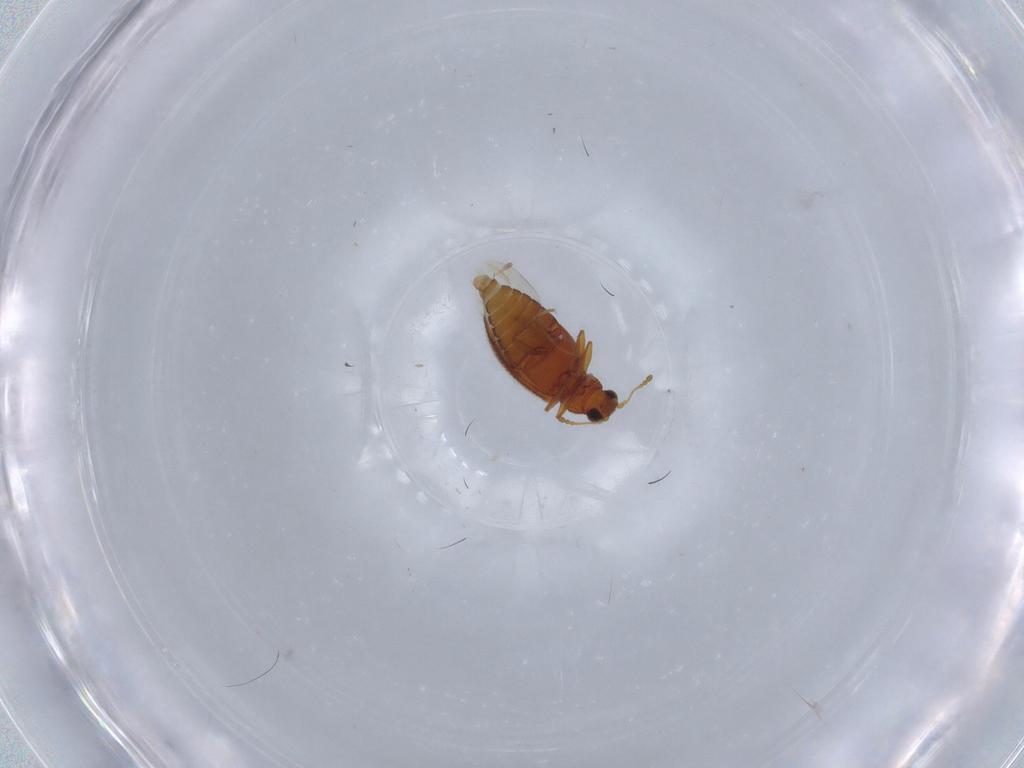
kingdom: Animalia
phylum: Arthropoda
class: Insecta
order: Coleoptera
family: Latridiidae
